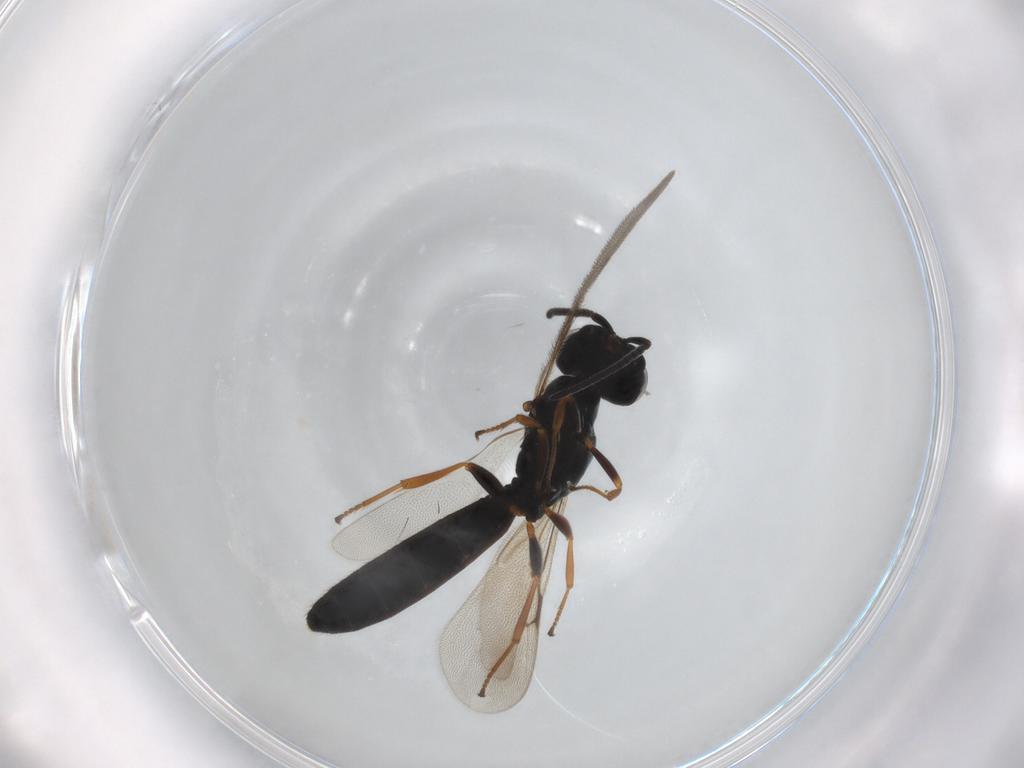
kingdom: Animalia
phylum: Arthropoda
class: Insecta
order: Hymenoptera
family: Scelionidae
